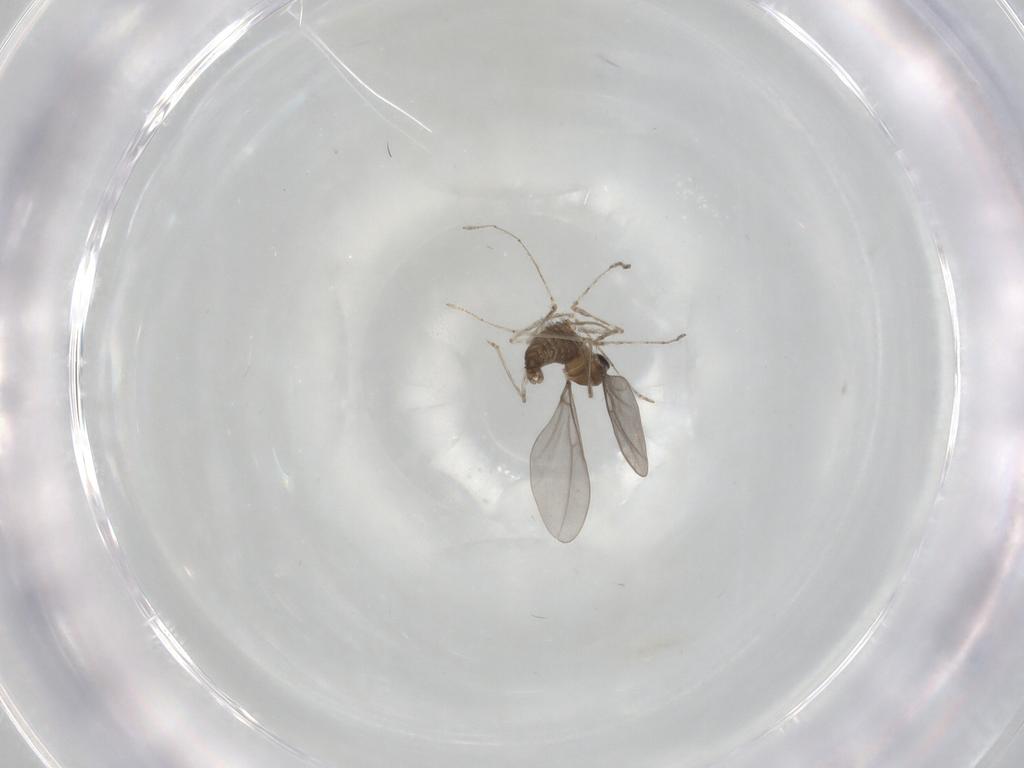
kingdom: Animalia
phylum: Arthropoda
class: Insecta
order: Diptera
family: Cecidomyiidae
